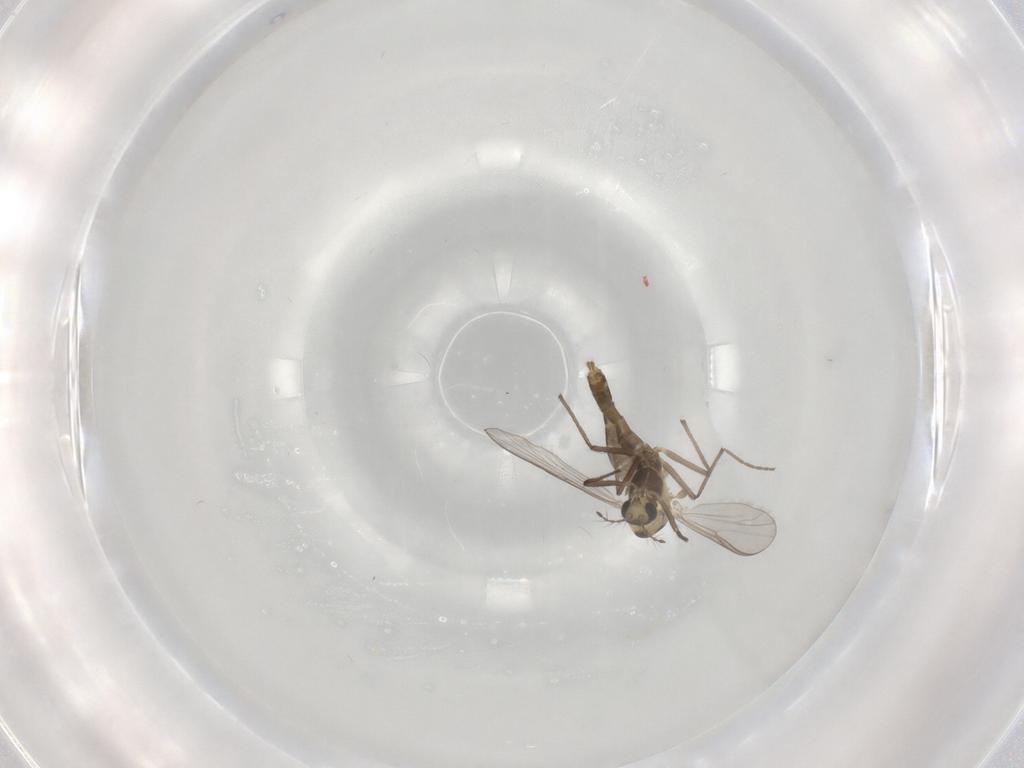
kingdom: Animalia
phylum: Arthropoda
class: Insecta
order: Diptera
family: Chironomidae
